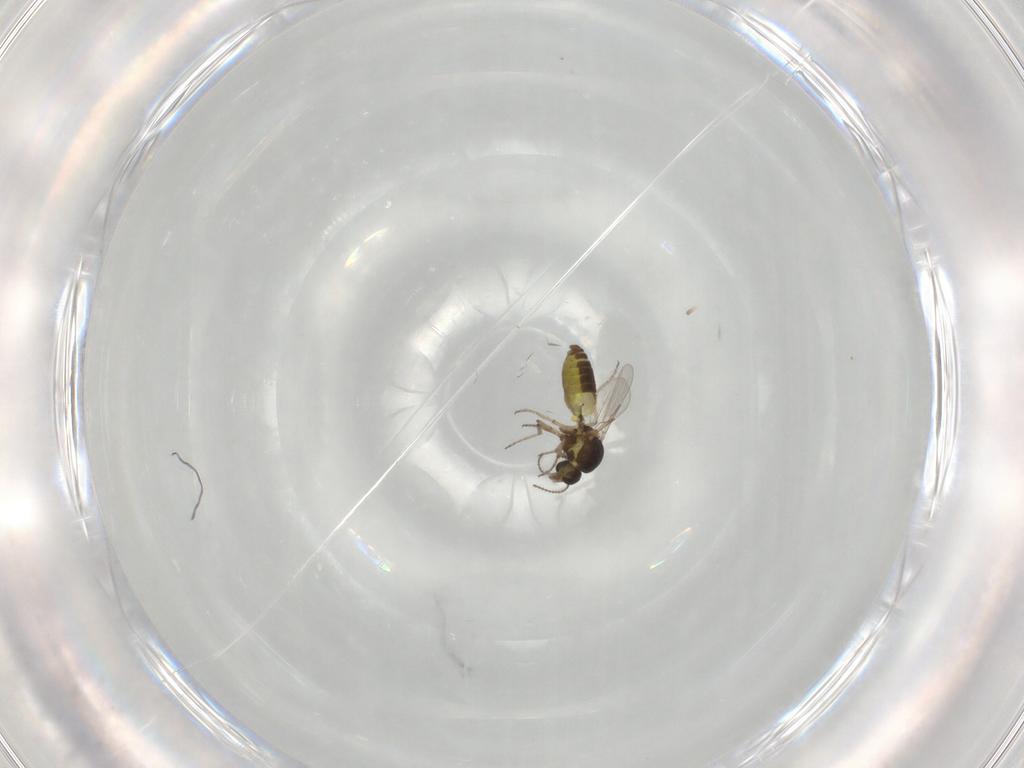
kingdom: Animalia
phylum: Arthropoda
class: Insecta
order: Diptera
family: Ceratopogonidae
